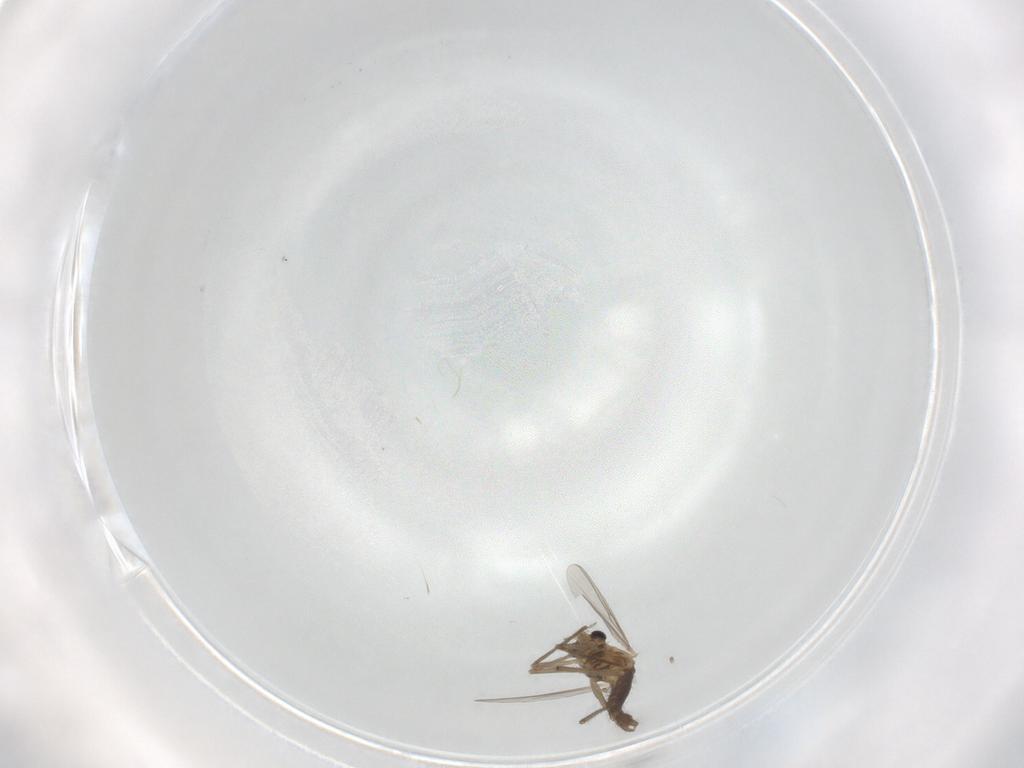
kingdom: Animalia
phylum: Arthropoda
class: Insecta
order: Diptera
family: Chironomidae
